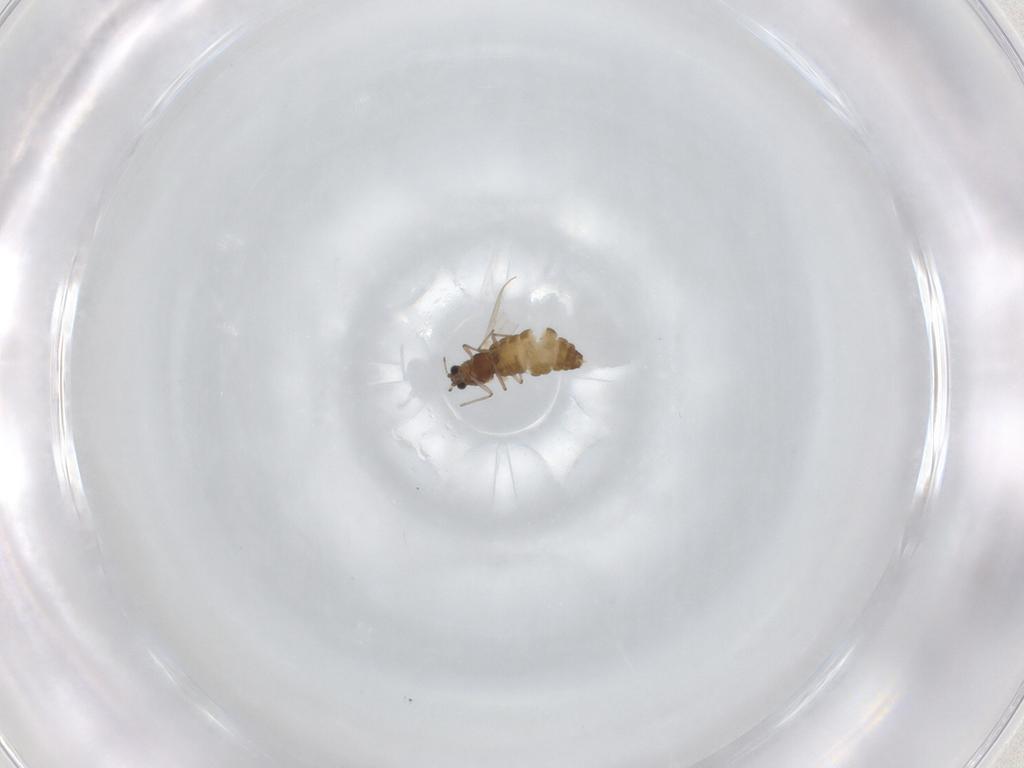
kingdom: Animalia
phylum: Arthropoda
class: Insecta
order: Diptera
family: Chironomidae
